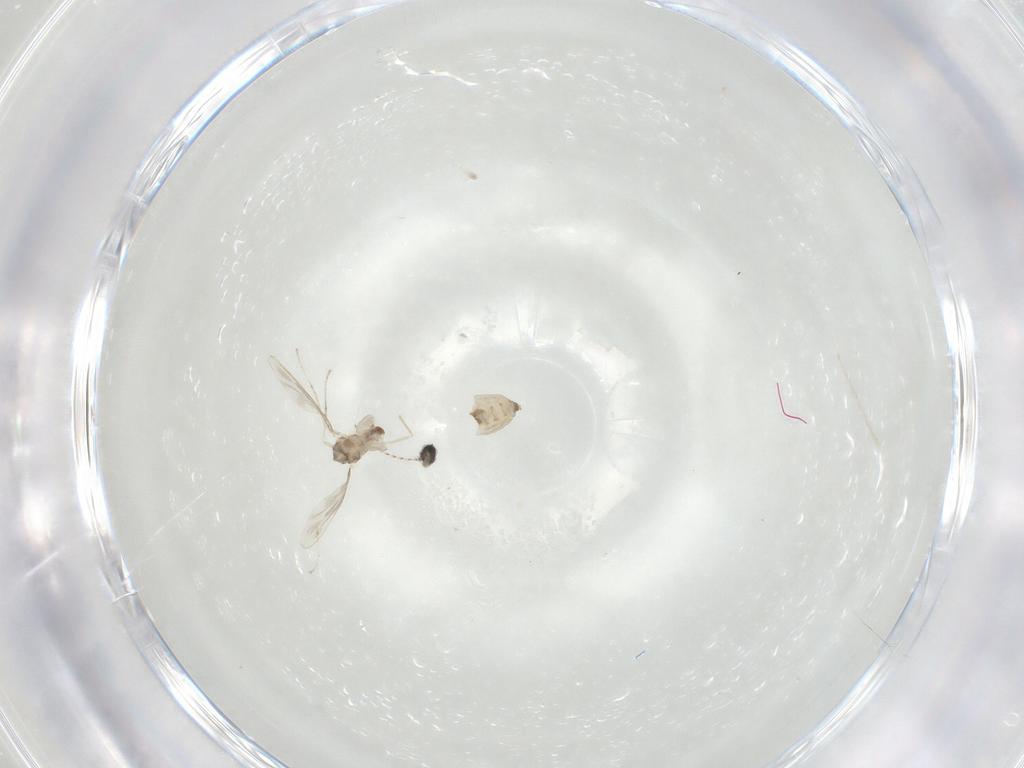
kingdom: Animalia
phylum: Arthropoda
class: Insecta
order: Diptera
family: Cecidomyiidae
